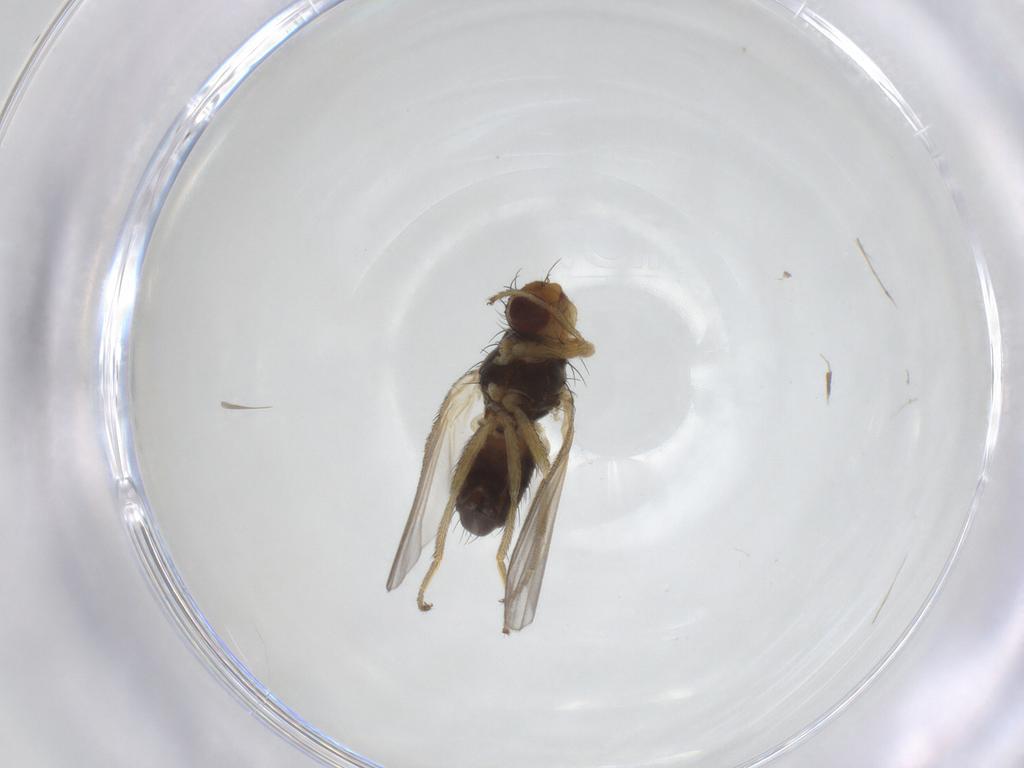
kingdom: Animalia
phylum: Arthropoda
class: Insecta
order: Diptera
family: Heleomyzidae
